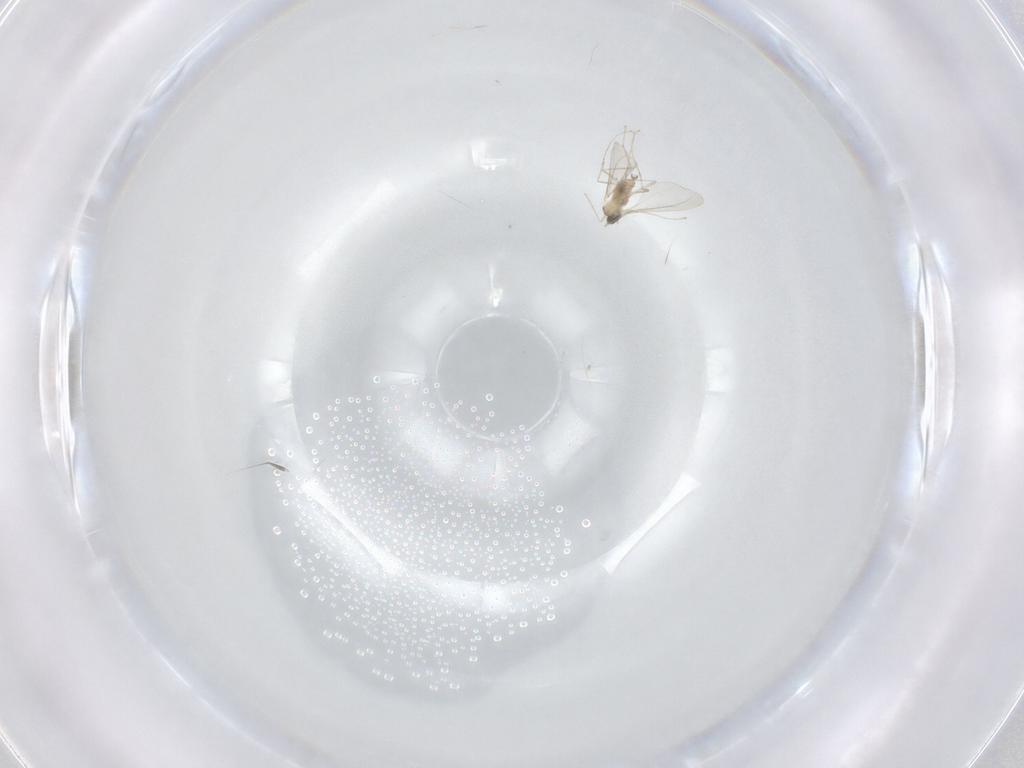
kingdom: Animalia
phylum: Arthropoda
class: Insecta
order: Diptera
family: Cecidomyiidae
